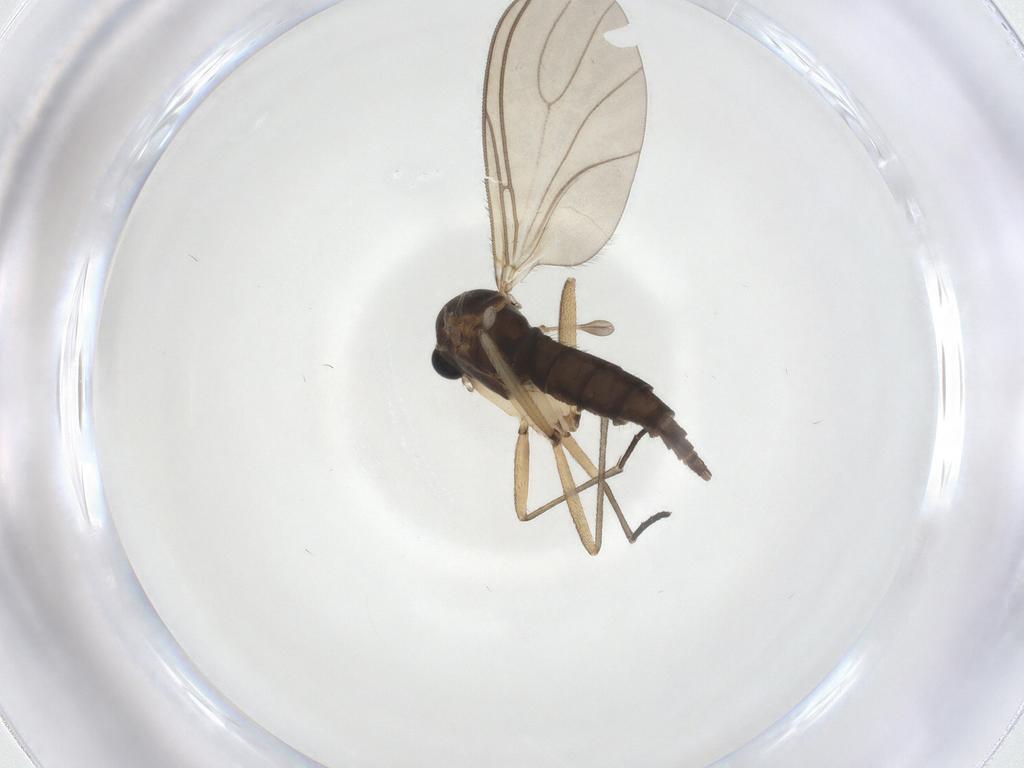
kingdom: Animalia
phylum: Arthropoda
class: Insecta
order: Diptera
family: Sciaridae
